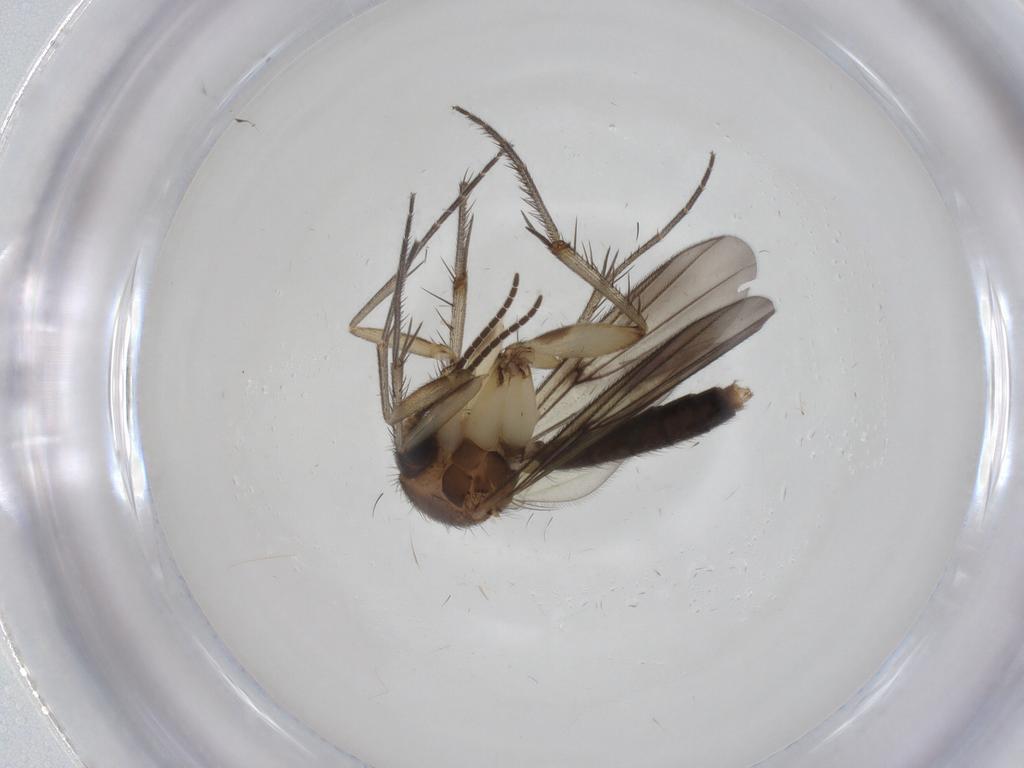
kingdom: Animalia
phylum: Arthropoda
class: Insecta
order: Diptera
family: Mycetophilidae
